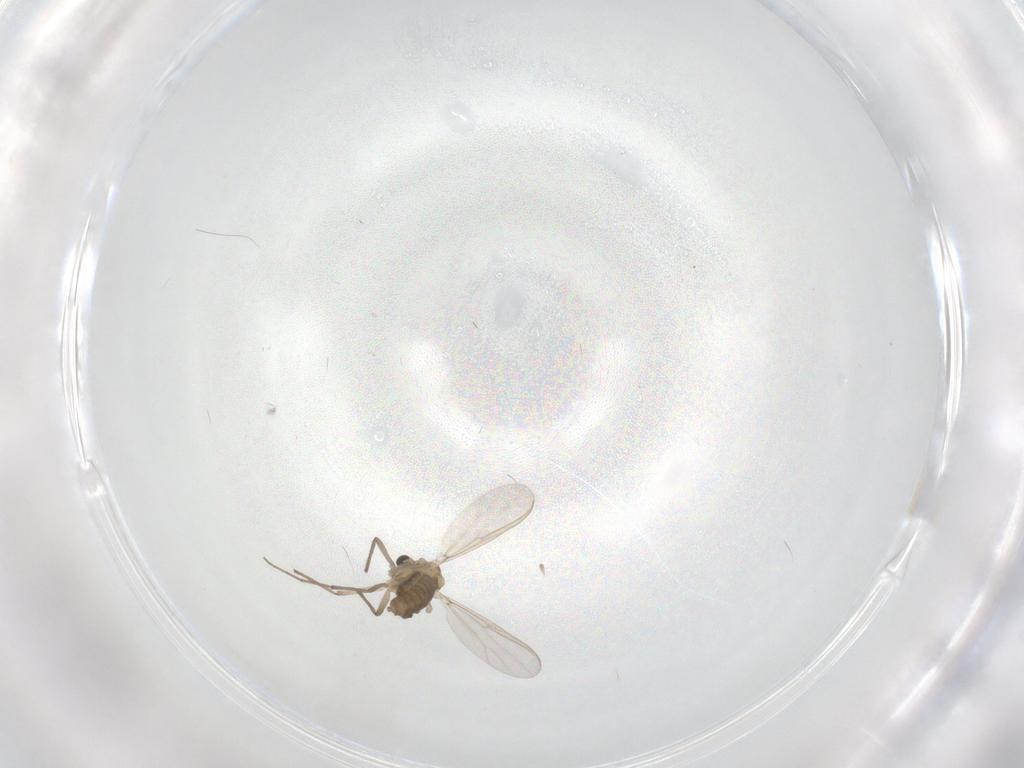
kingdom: Animalia
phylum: Arthropoda
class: Insecta
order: Diptera
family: Chironomidae
